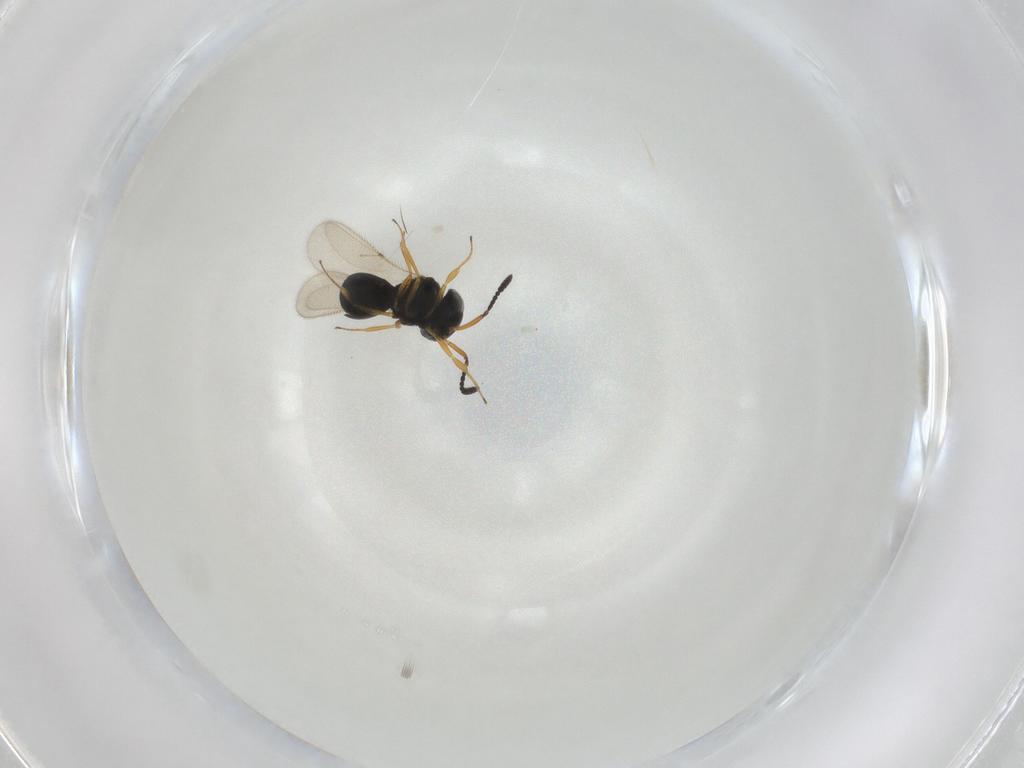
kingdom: Animalia
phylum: Arthropoda
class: Insecta
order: Hymenoptera
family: Scelionidae
